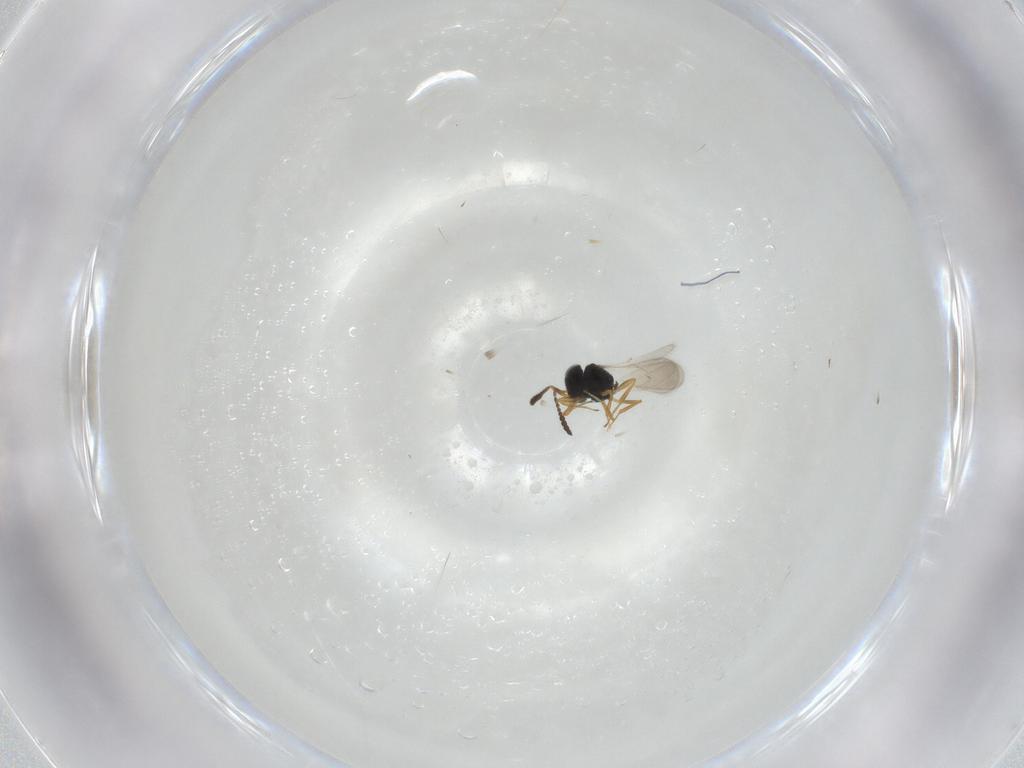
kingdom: Animalia
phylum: Arthropoda
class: Insecta
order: Hymenoptera
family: Scelionidae
